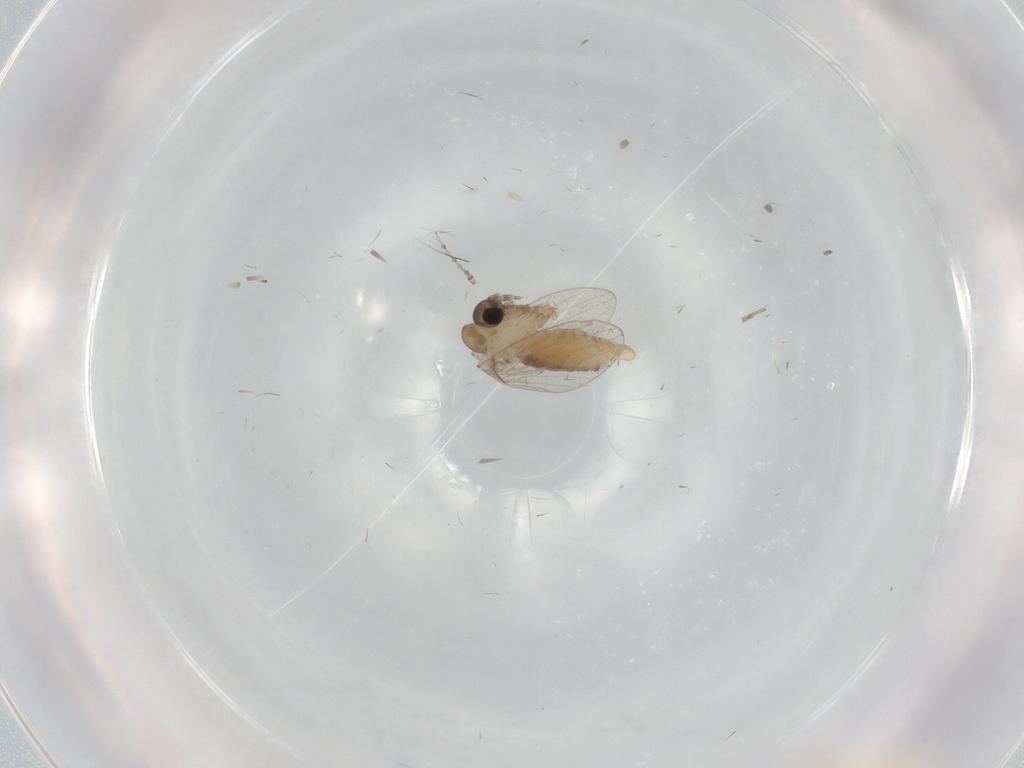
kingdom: Animalia
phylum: Arthropoda
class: Insecta
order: Diptera
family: Psychodidae
